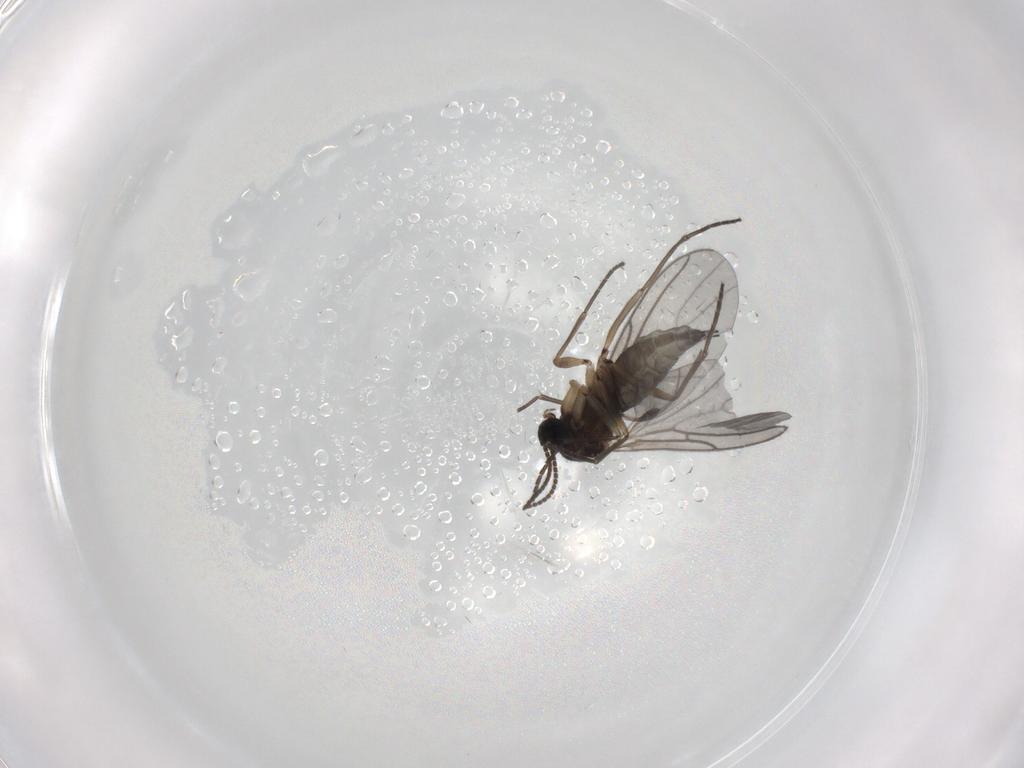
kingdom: Animalia
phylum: Arthropoda
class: Insecta
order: Diptera
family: Sciaridae
